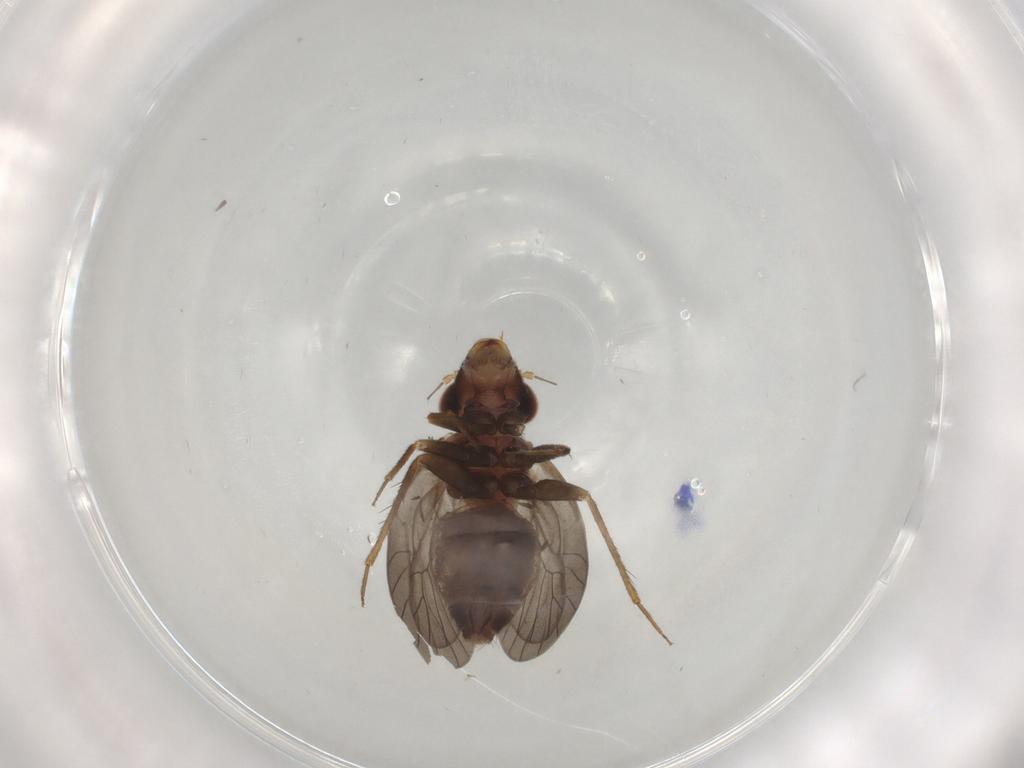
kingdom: Animalia
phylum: Arthropoda
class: Insecta
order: Psocodea
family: Lepidopsocidae
